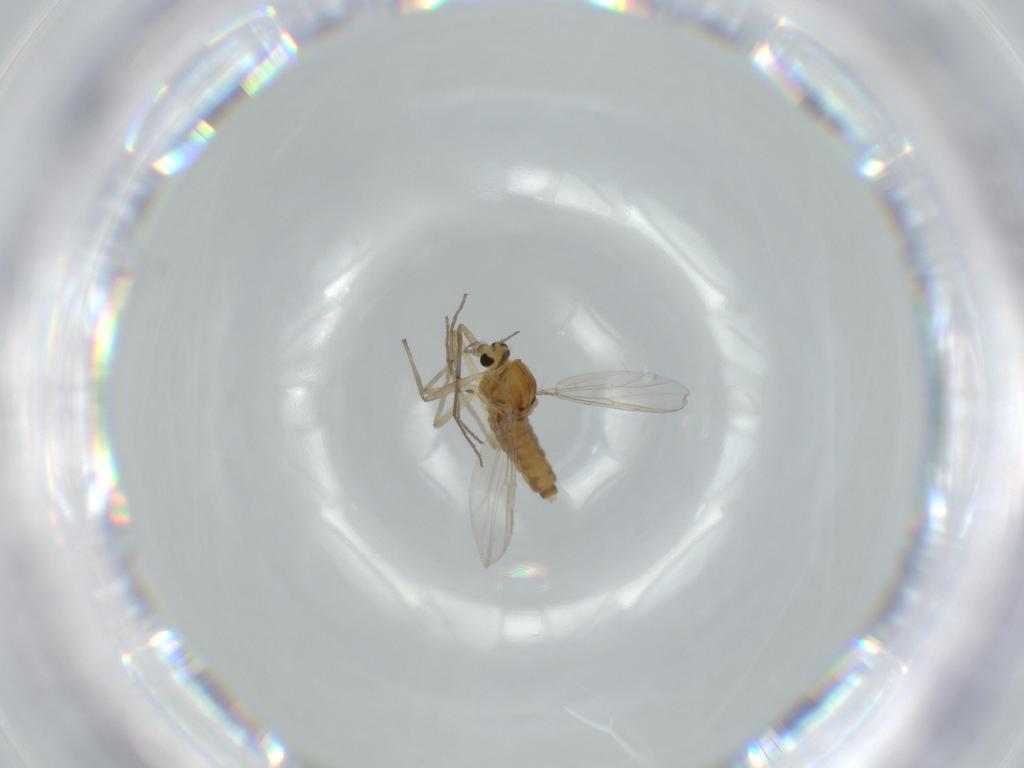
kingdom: Animalia
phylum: Arthropoda
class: Insecta
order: Diptera
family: Chironomidae
